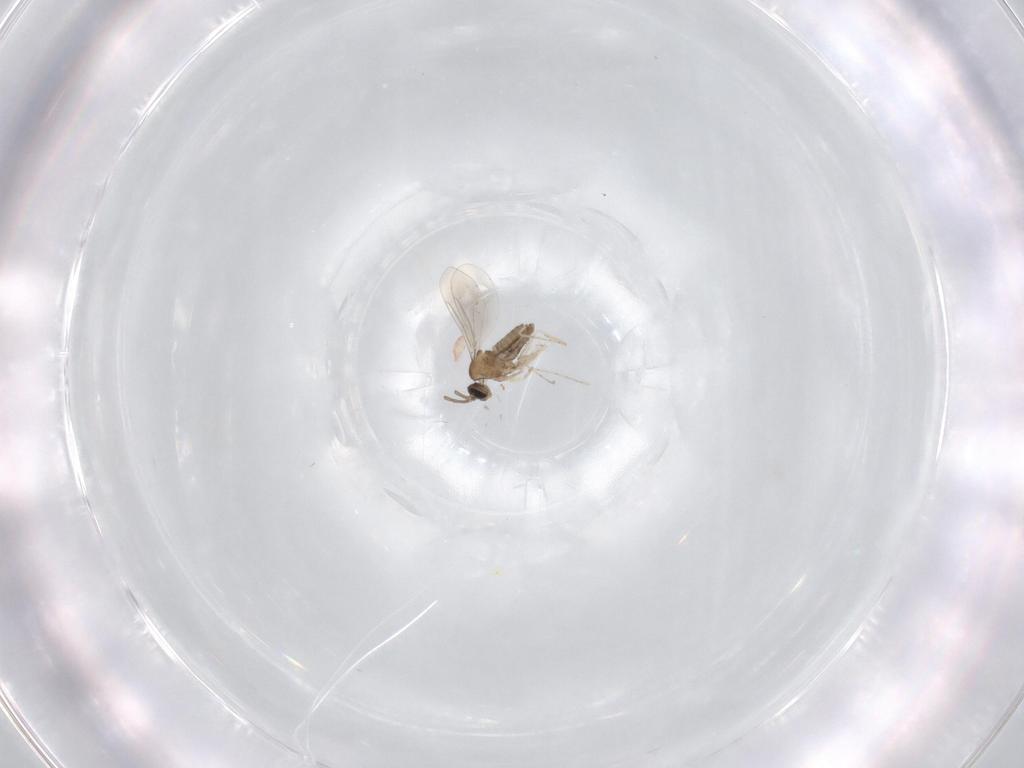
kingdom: Animalia
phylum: Arthropoda
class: Insecta
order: Diptera
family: Cecidomyiidae
